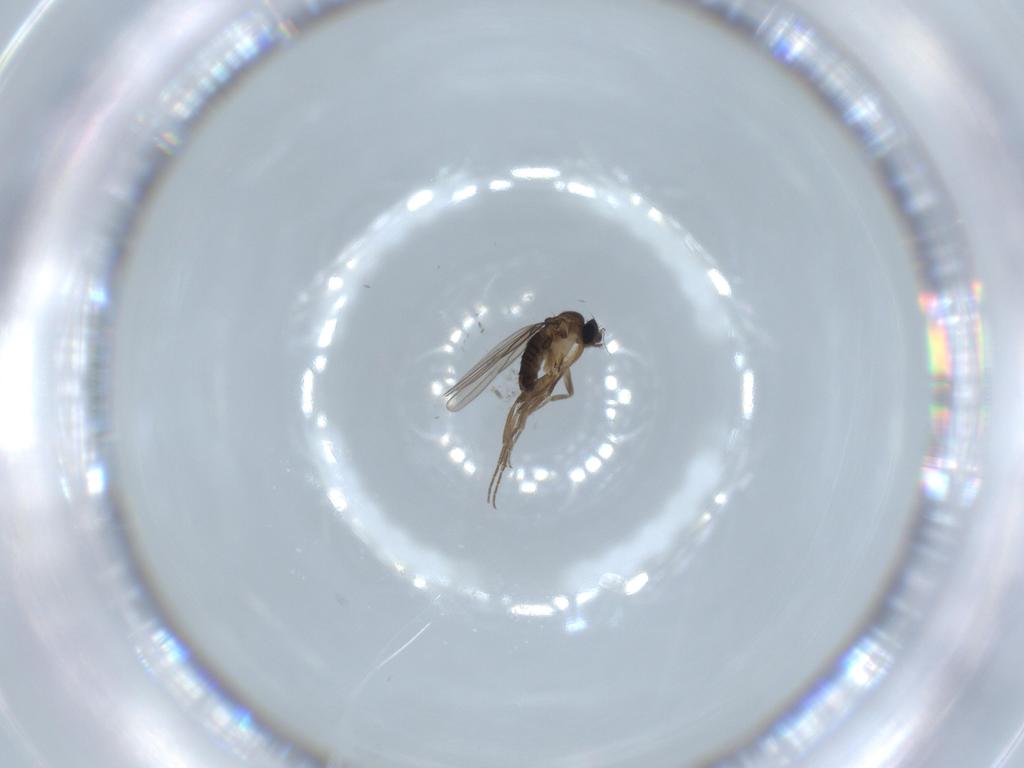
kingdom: Animalia
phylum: Arthropoda
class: Insecta
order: Diptera
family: Phoridae
